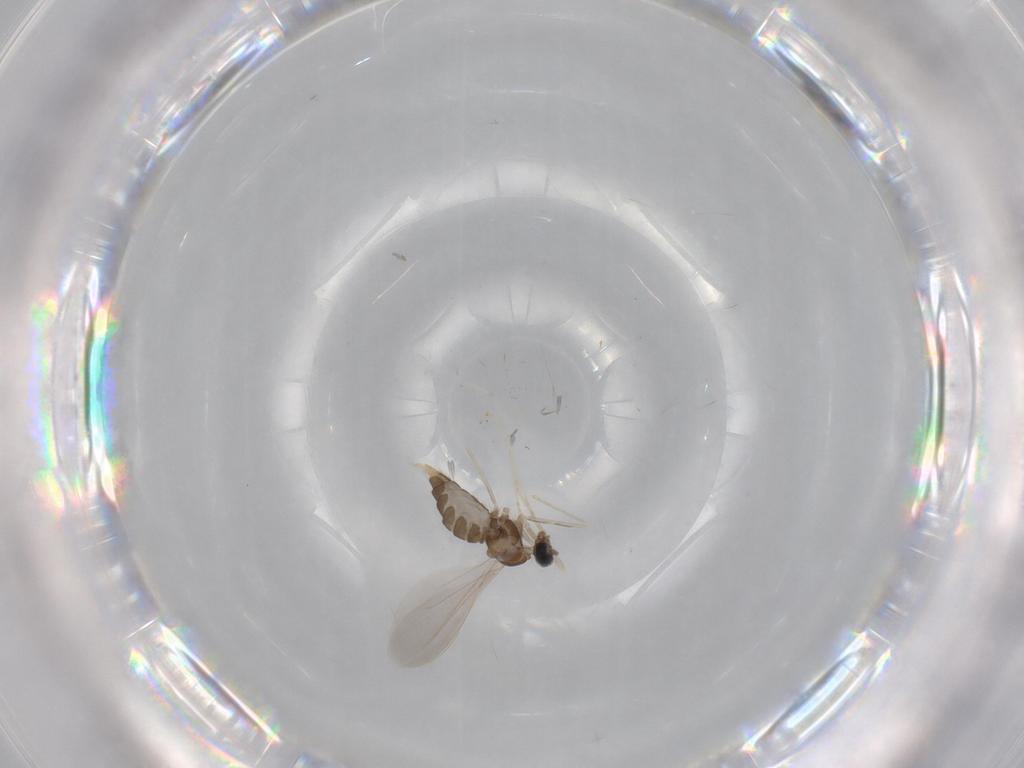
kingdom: Animalia
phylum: Arthropoda
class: Insecta
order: Diptera
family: Cecidomyiidae
